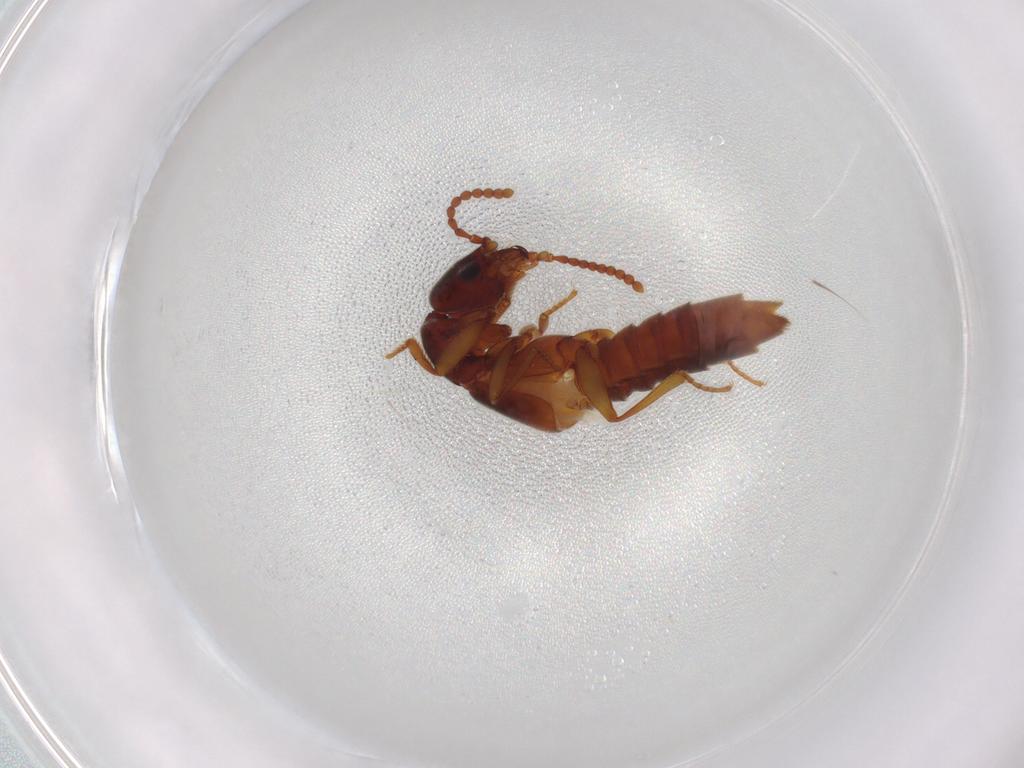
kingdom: Animalia
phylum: Arthropoda
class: Insecta
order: Coleoptera
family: Staphylinidae
